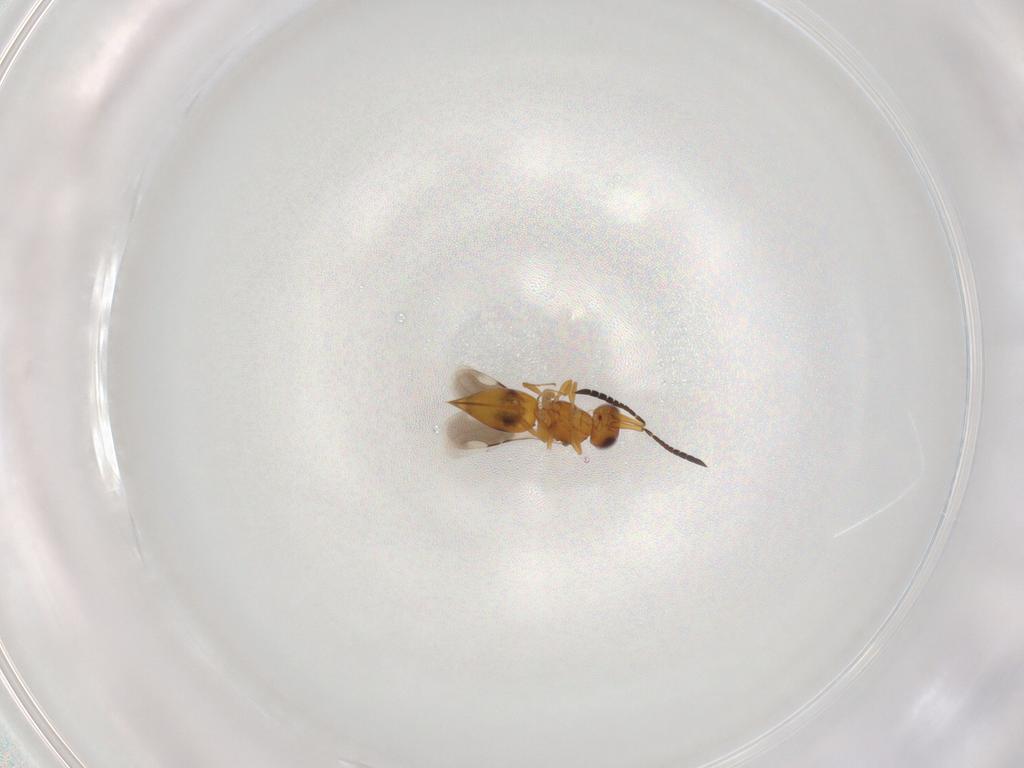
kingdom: Animalia
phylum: Arthropoda
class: Insecta
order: Hymenoptera
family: Ceraphronidae
